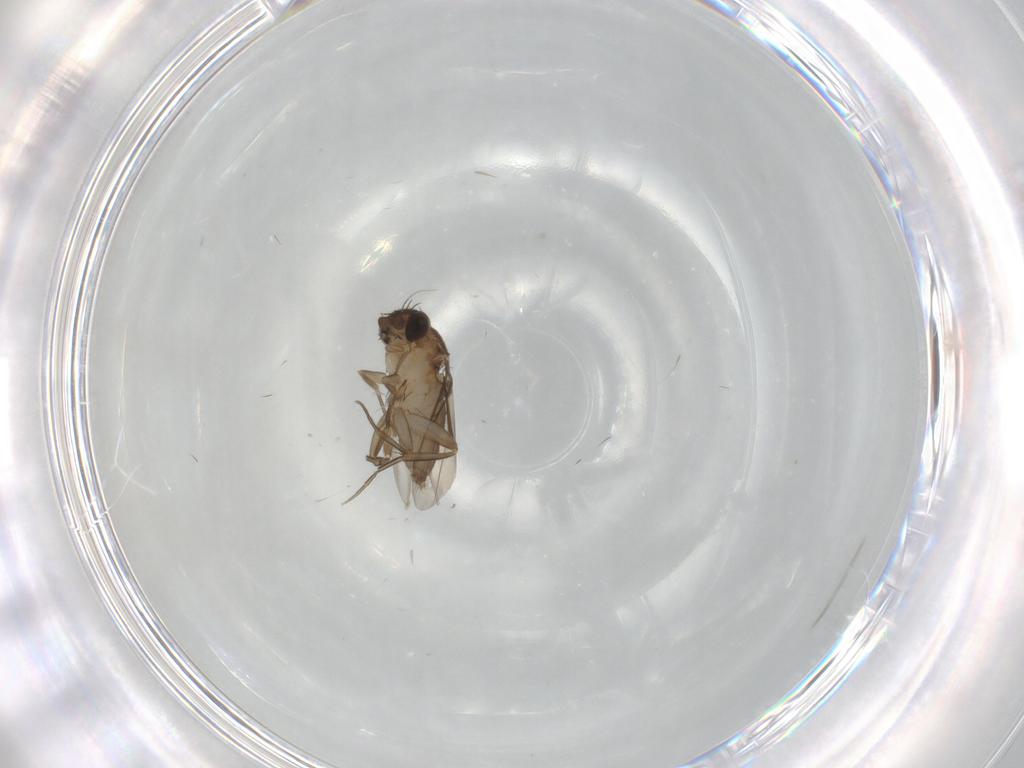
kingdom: Animalia
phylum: Arthropoda
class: Insecta
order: Diptera
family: Phoridae
